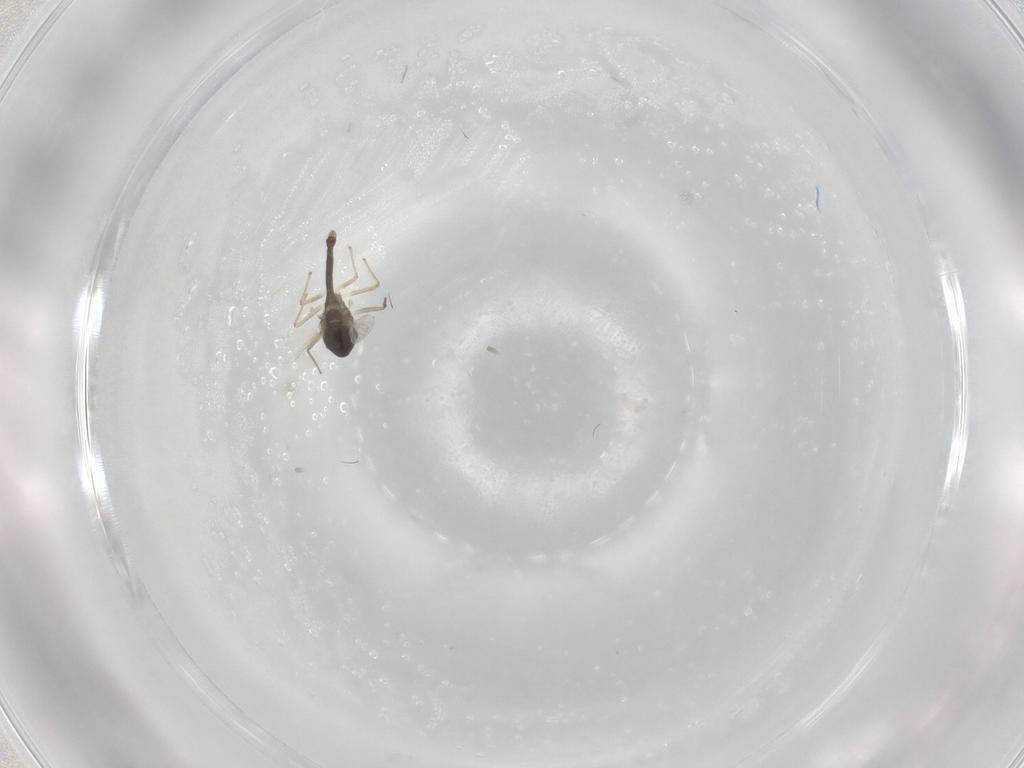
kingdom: Animalia
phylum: Arthropoda
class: Insecta
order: Diptera
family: Chironomidae
